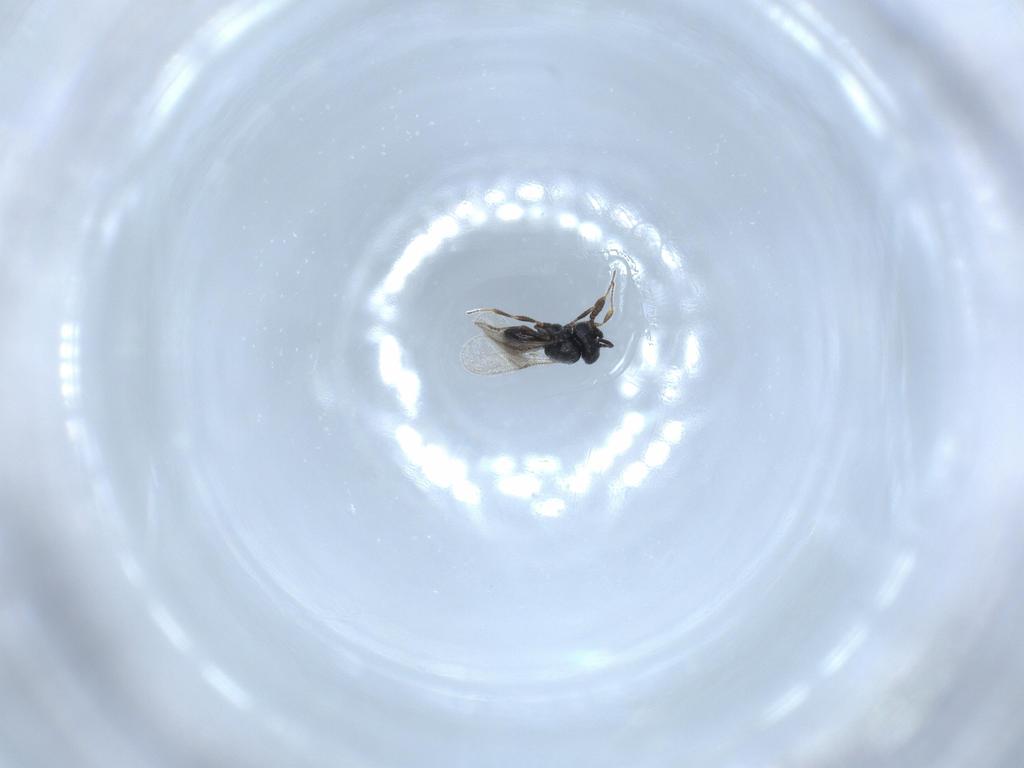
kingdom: Animalia
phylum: Arthropoda
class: Insecta
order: Hymenoptera
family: Scelionidae
